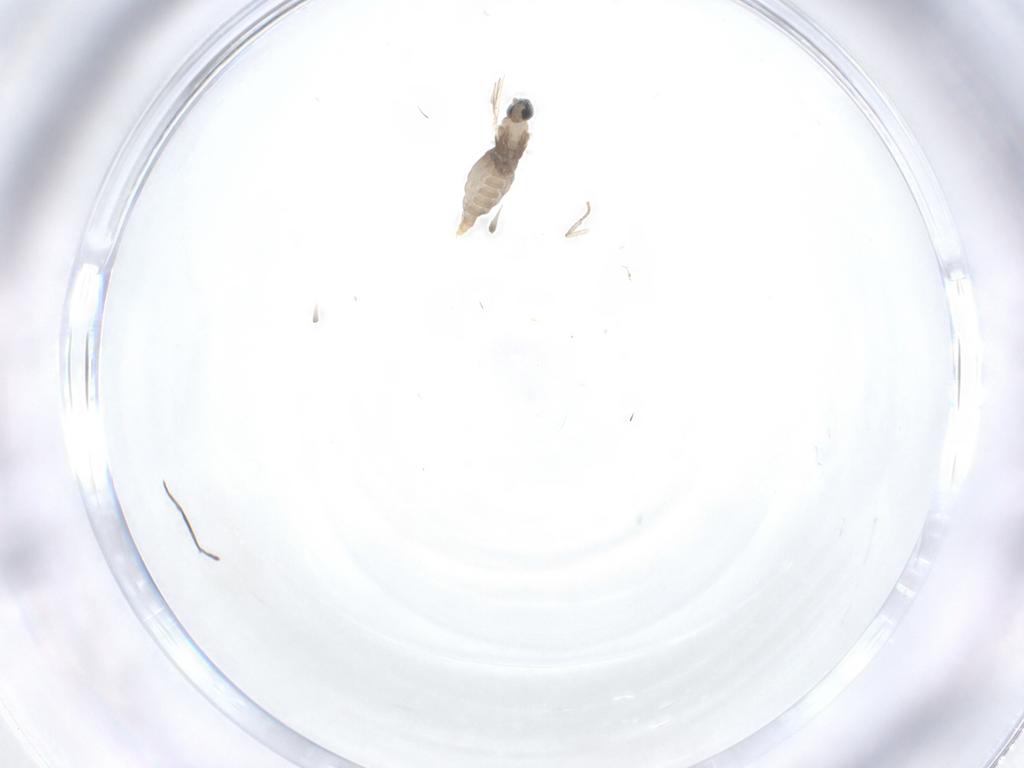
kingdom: Animalia
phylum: Arthropoda
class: Insecta
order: Diptera
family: Cecidomyiidae
